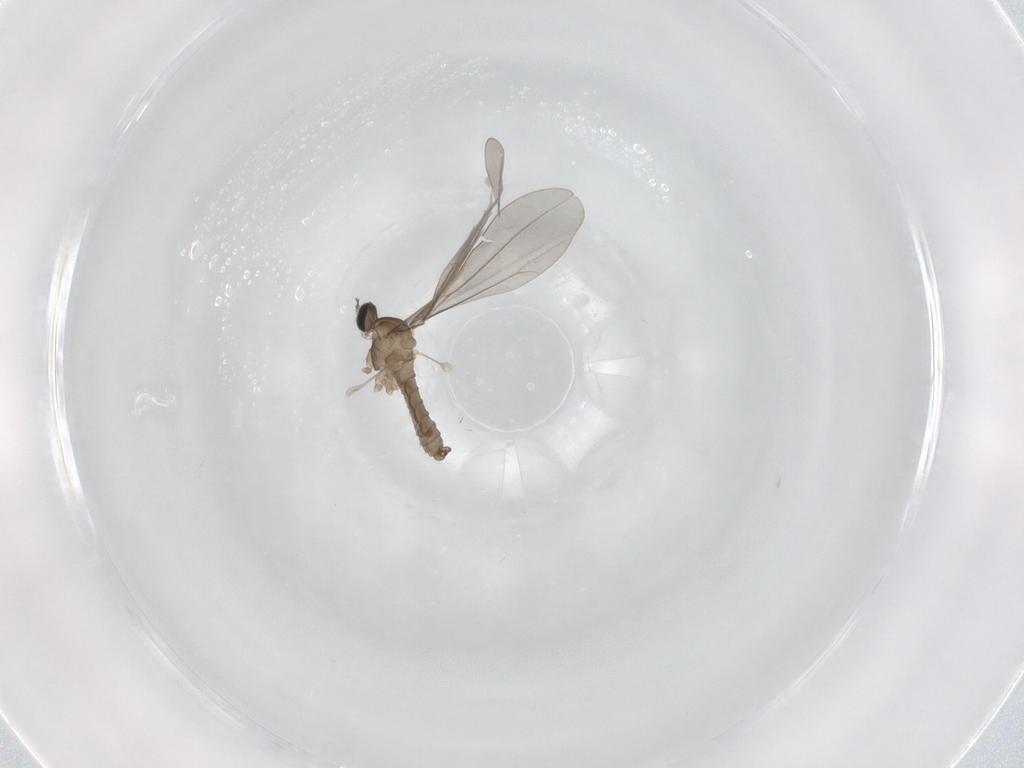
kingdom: Animalia
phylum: Arthropoda
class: Insecta
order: Diptera
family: Cecidomyiidae
